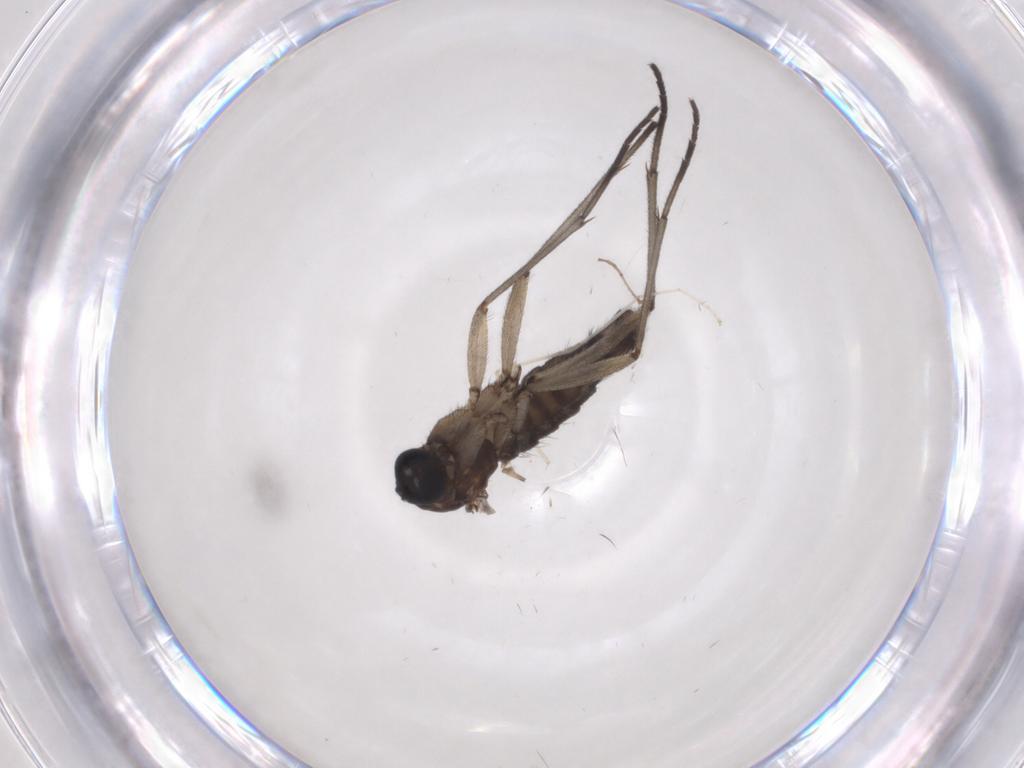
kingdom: Animalia
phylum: Arthropoda
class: Insecta
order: Diptera
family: Sciaridae
